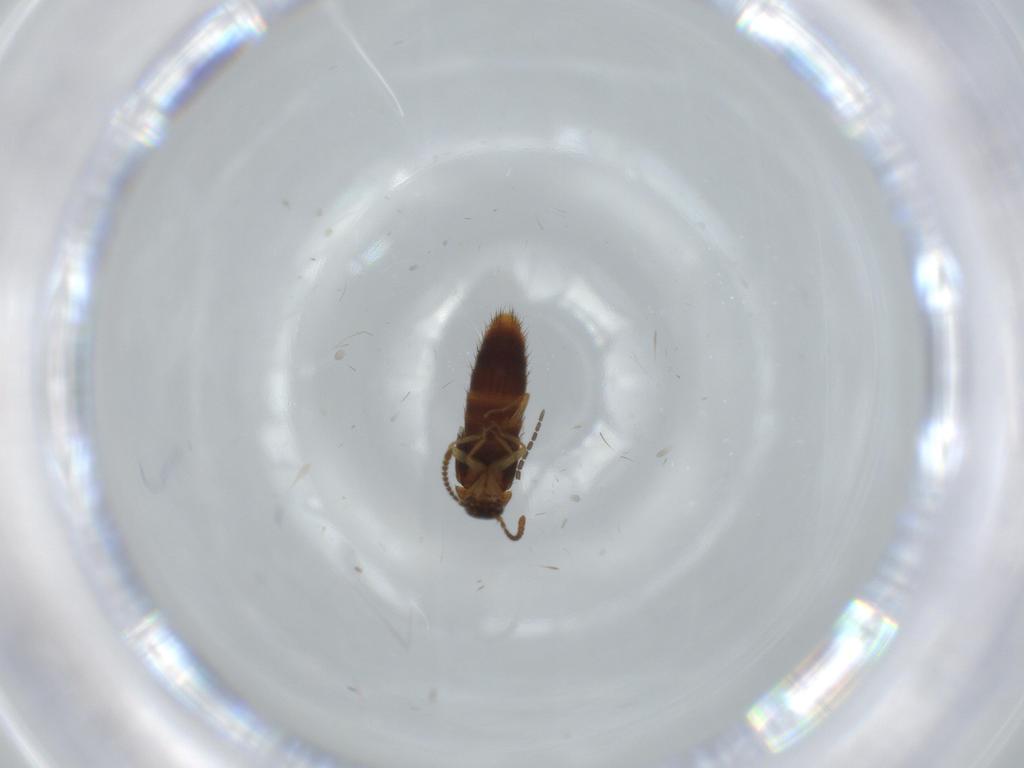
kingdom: Animalia
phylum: Arthropoda
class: Insecta
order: Coleoptera
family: Staphylinidae
